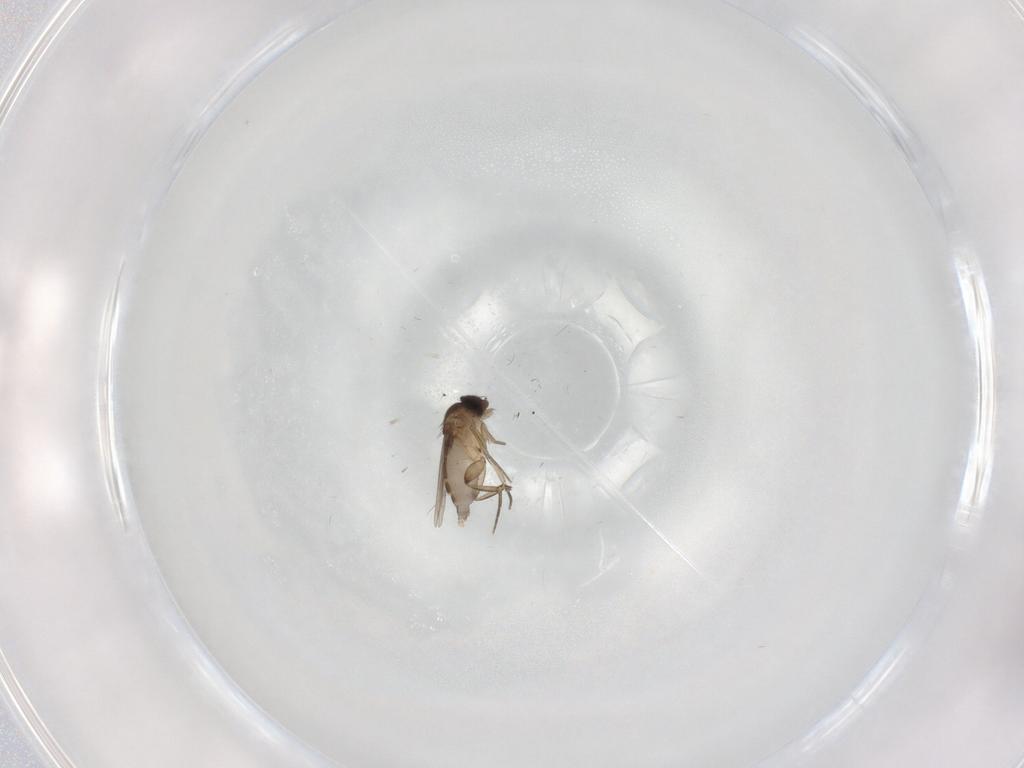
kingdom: Animalia
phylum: Arthropoda
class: Insecta
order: Diptera
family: Phoridae
